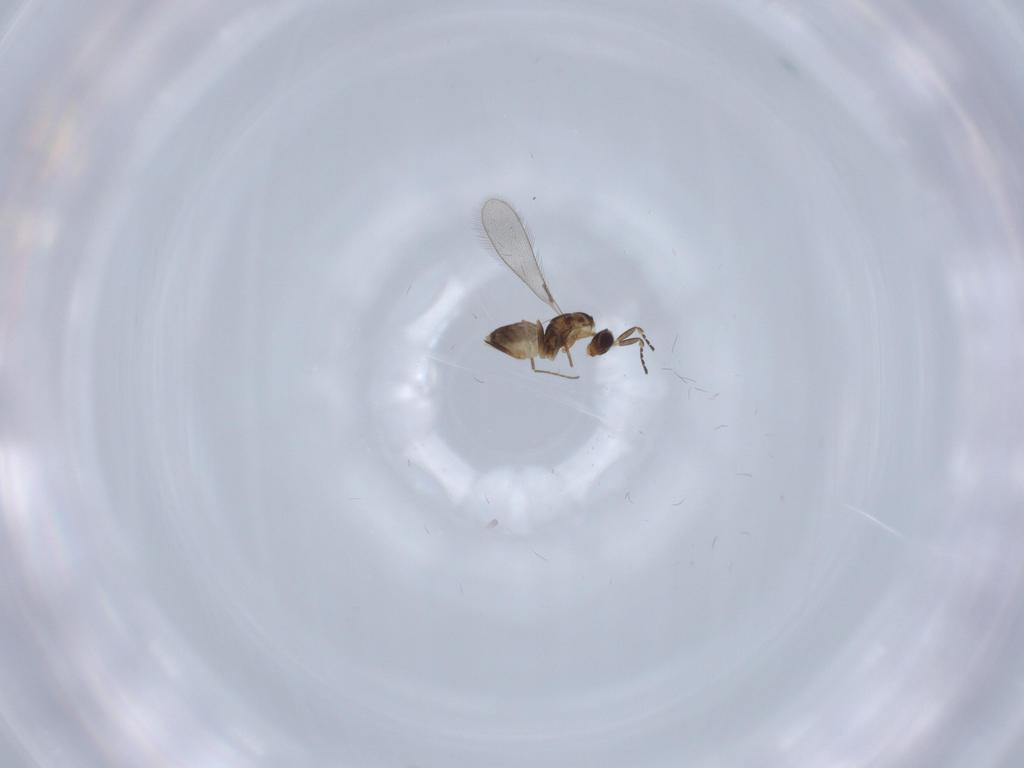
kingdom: Animalia
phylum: Arthropoda
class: Insecta
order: Hymenoptera
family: Mymaridae
